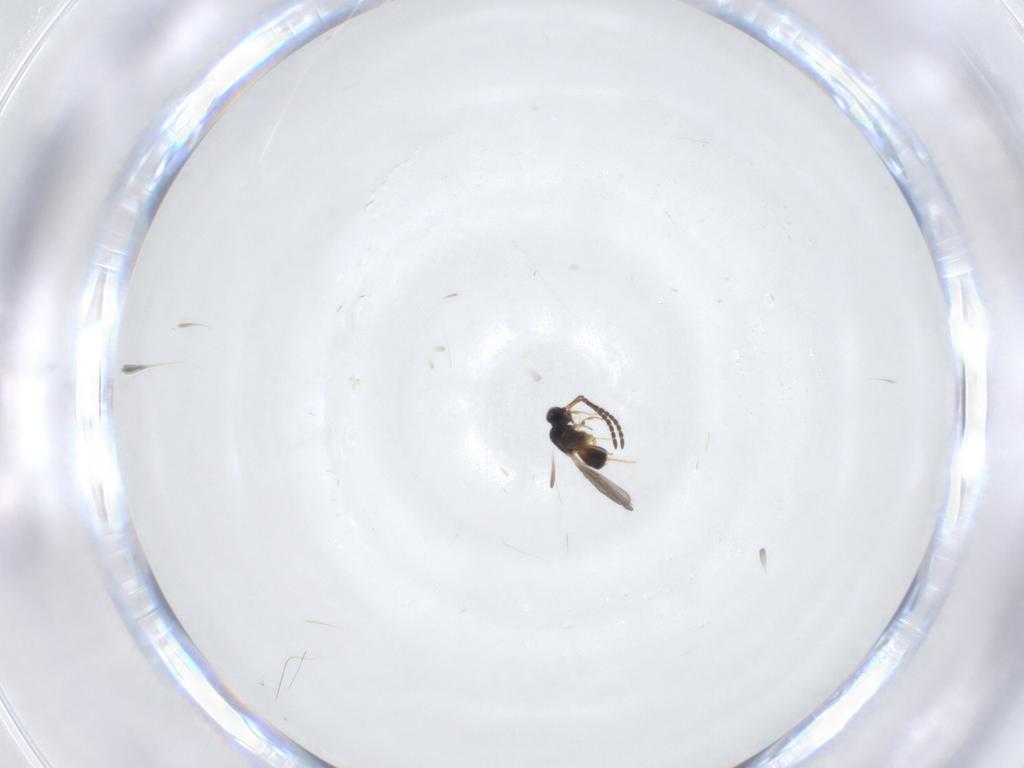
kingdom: Animalia
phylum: Arthropoda
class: Insecta
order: Hymenoptera
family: Ceraphronidae
